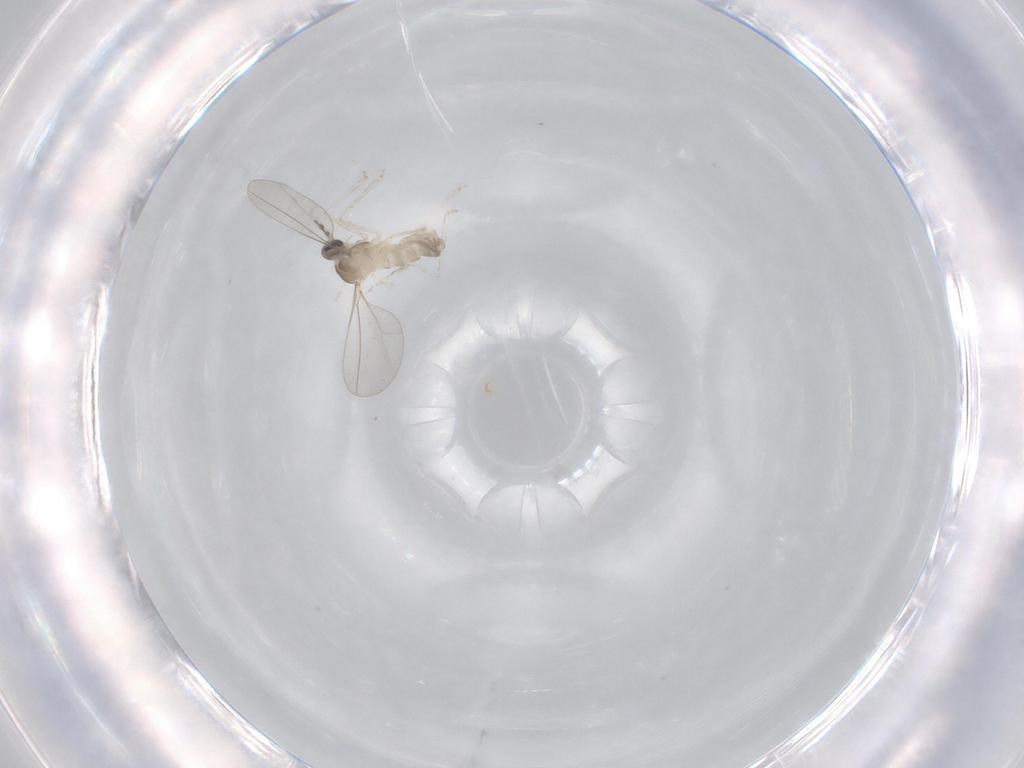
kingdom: Animalia
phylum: Arthropoda
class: Insecta
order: Diptera
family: Cecidomyiidae
